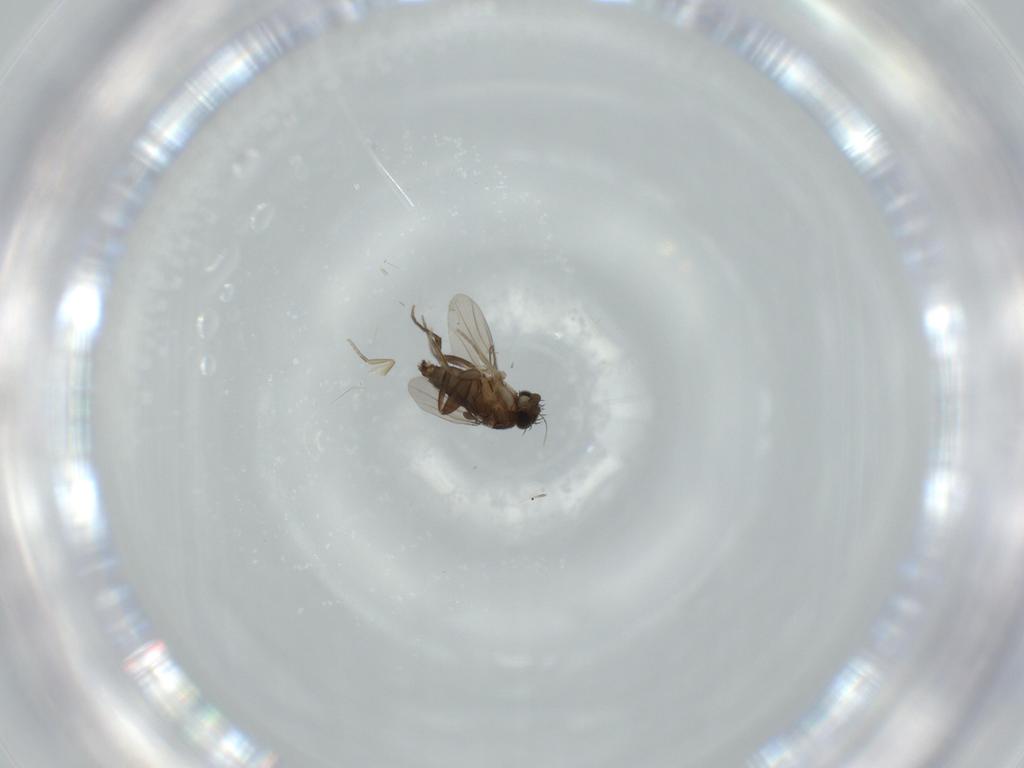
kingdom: Animalia
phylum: Arthropoda
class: Insecta
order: Diptera
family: Phoridae
